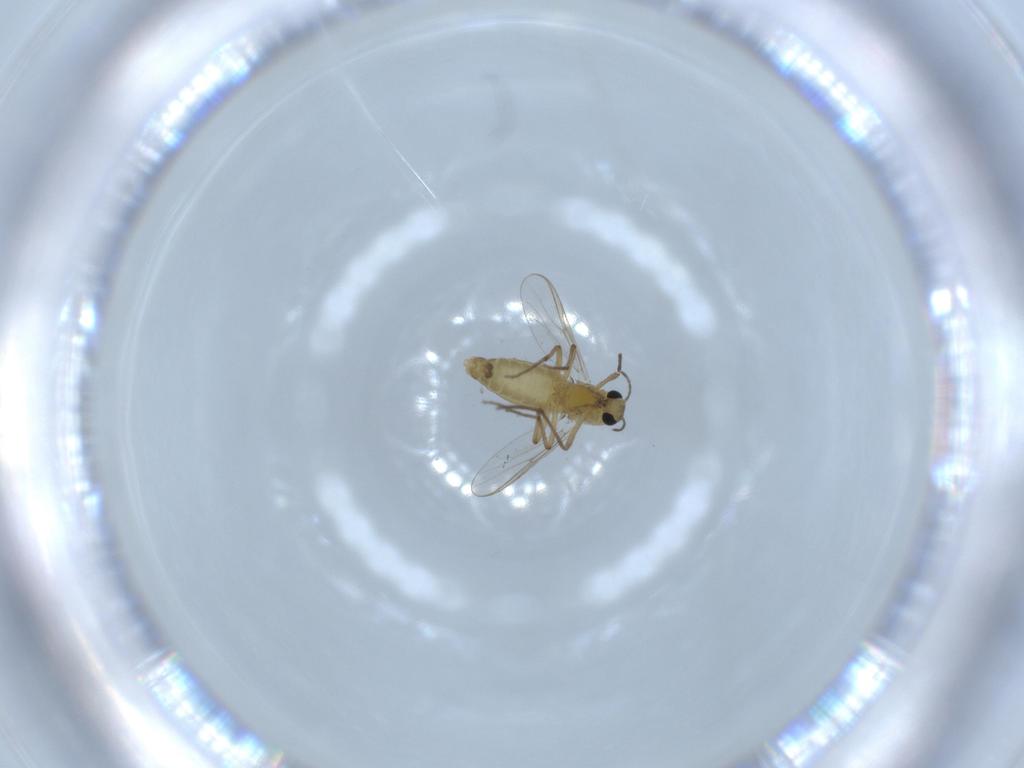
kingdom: Animalia
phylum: Arthropoda
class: Insecta
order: Diptera
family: Chironomidae
